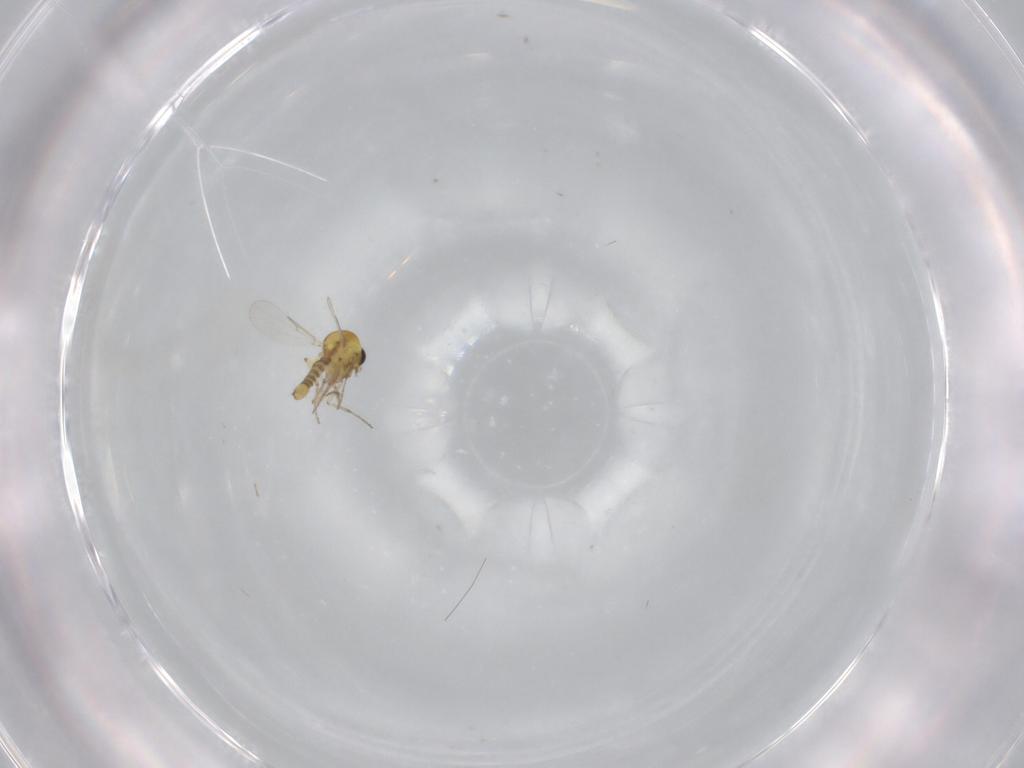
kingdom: Animalia
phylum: Arthropoda
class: Insecta
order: Diptera
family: Ceratopogonidae
